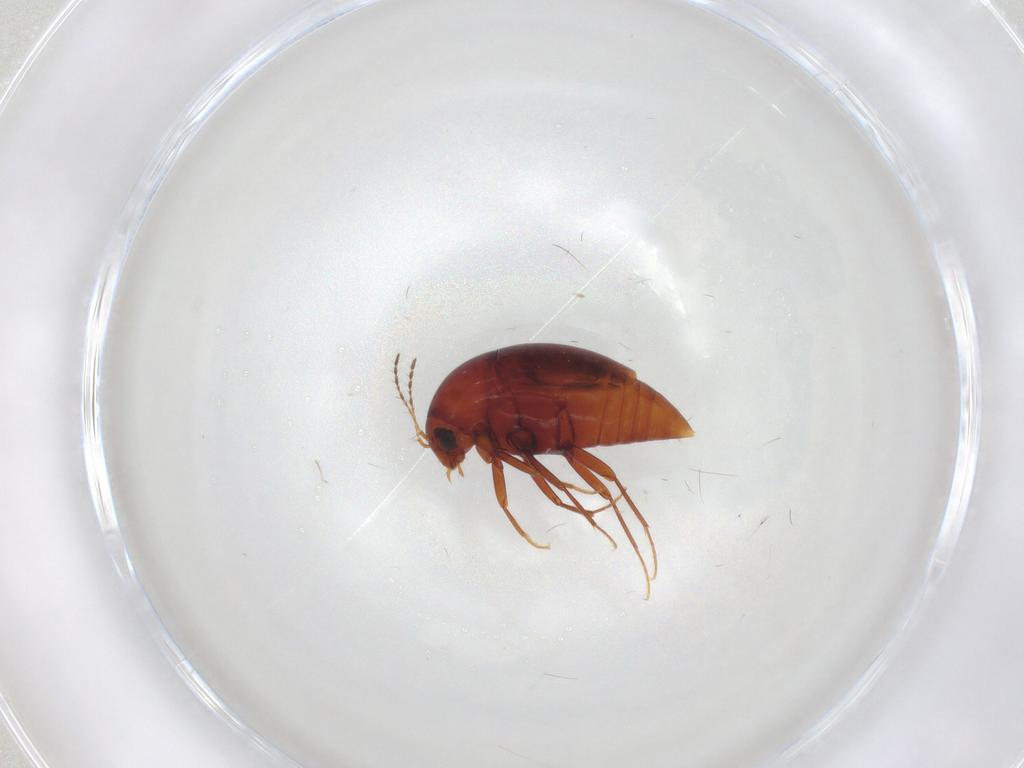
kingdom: Animalia
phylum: Arthropoda
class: Insecta
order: Coleoptera
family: Staphylinidae
